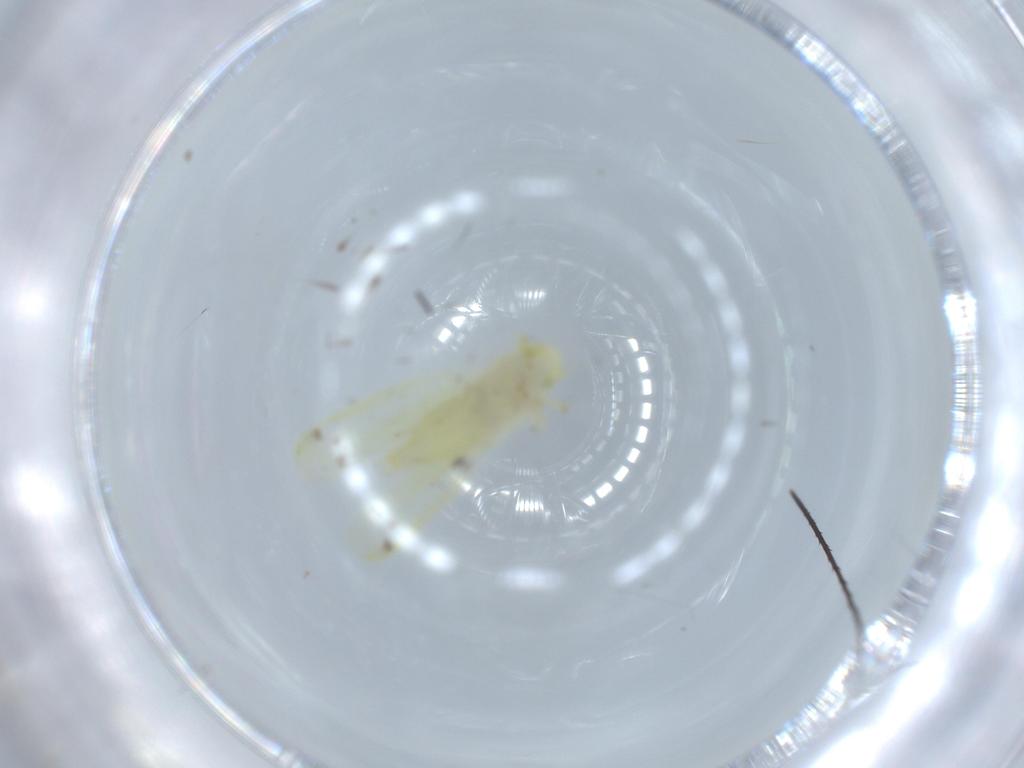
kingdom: Animalia
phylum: Arthropoda
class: Insecta
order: Hemiptera
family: Cicadellidae
